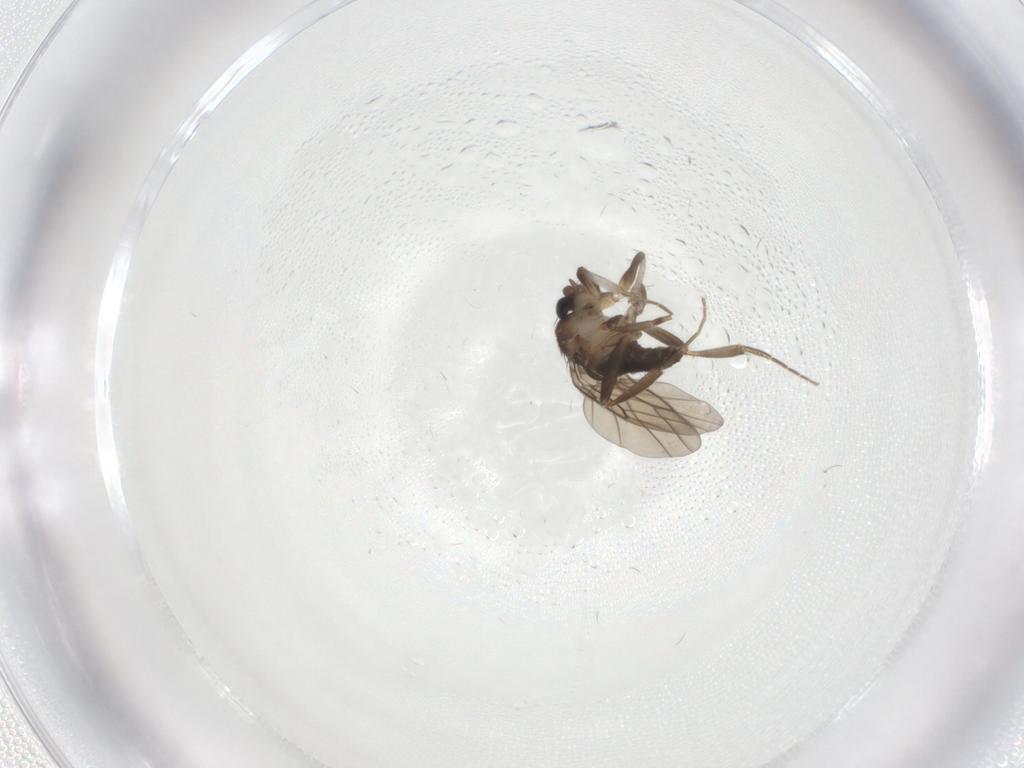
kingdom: Animalia
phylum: Arthropoda
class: Insecta
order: Diptera
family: Phoridae
